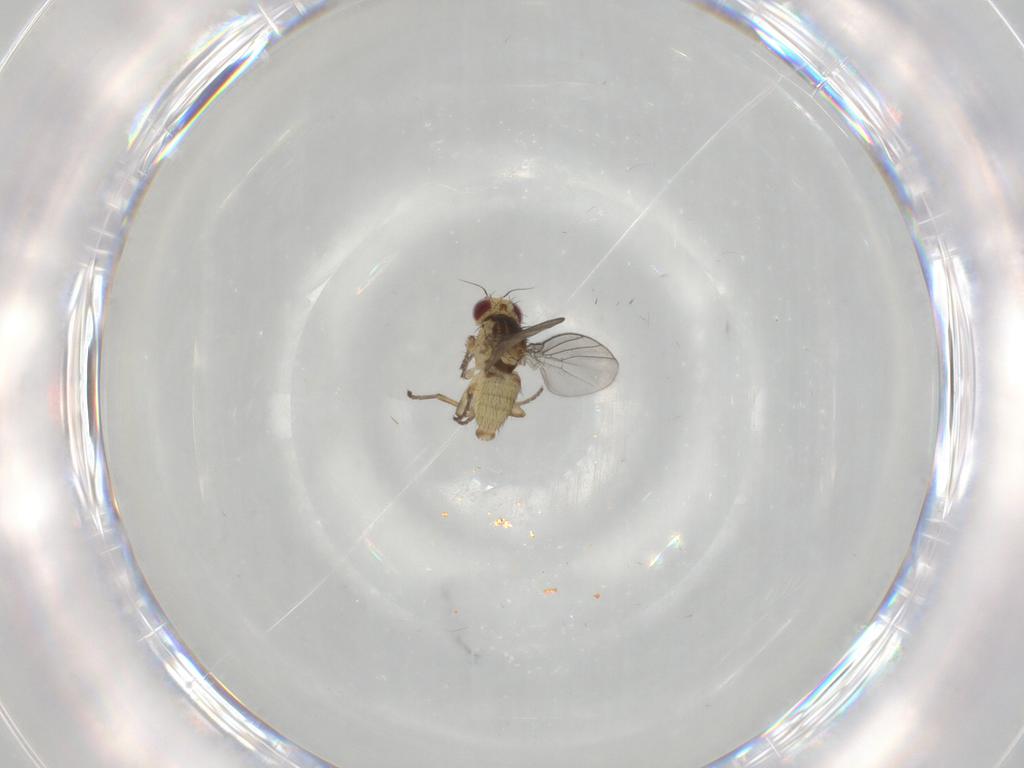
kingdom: Animalia
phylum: Arthropoda
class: Insecta
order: Diptera
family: Agromyzidae
